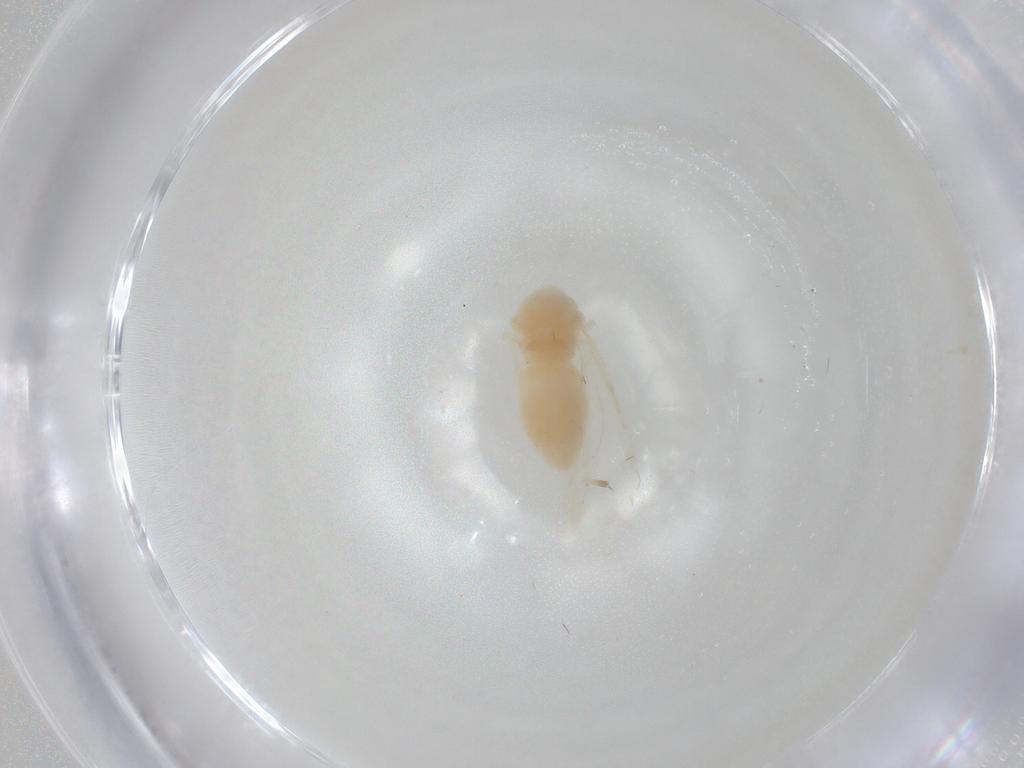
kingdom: Animalia
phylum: Arthropoda
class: Insecta
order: Hemiptera
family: Aleyrodidae
